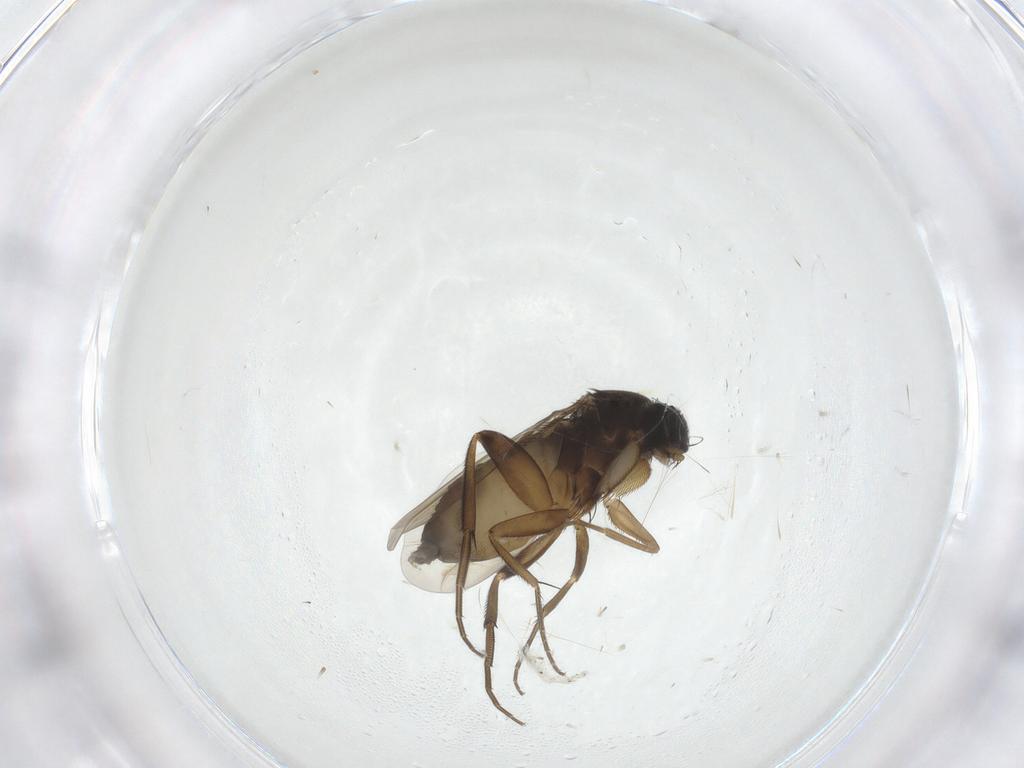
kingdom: Animalia
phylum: Arthropoda
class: Insecta
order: Diptera
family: Phoridae
